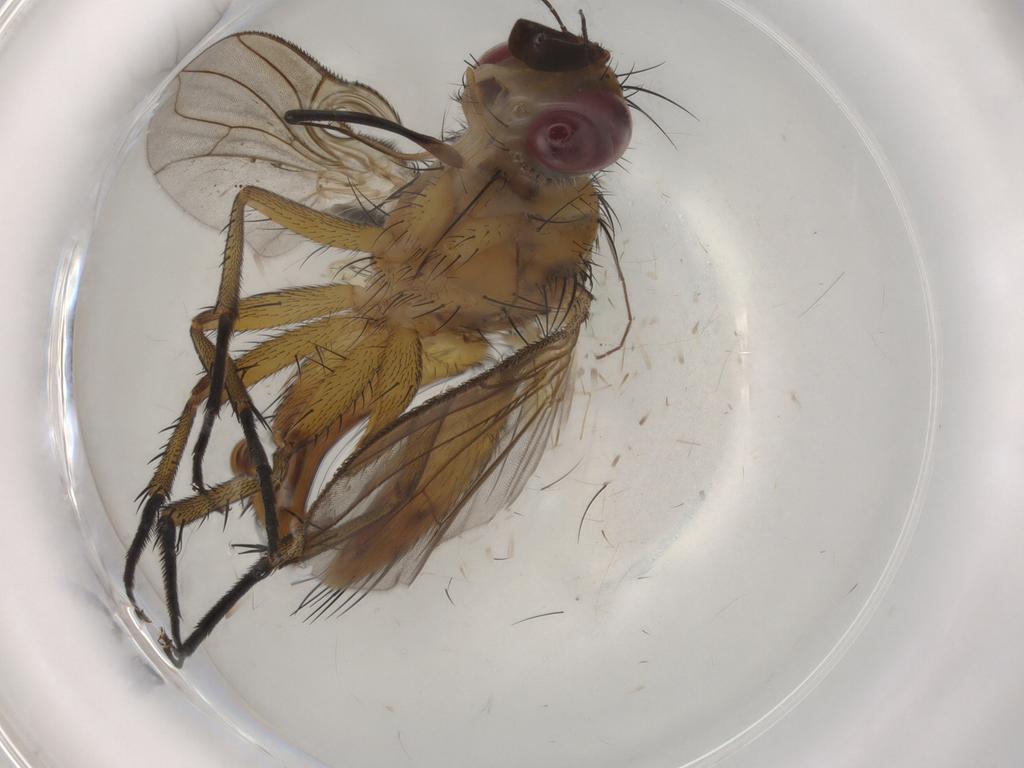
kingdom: Animalia
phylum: Arthropoda
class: Insecta
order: Diptera
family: Tachinidae
